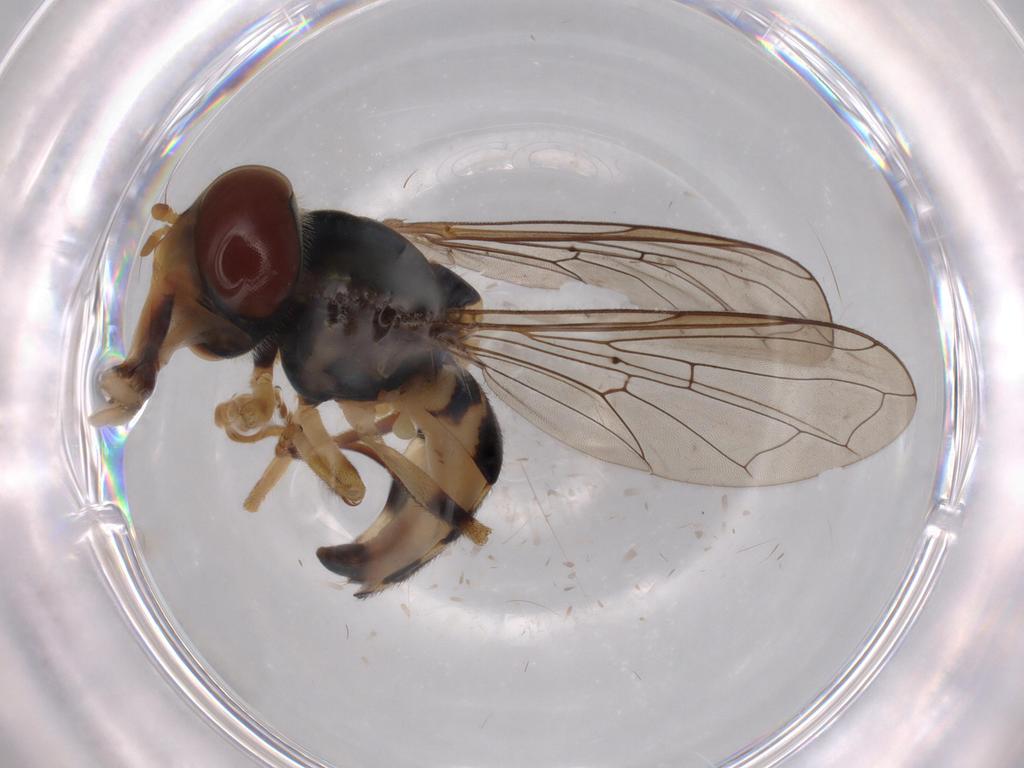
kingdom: Animalia
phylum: Arthropoda
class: Insecta
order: Diptera
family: Syrphidae
